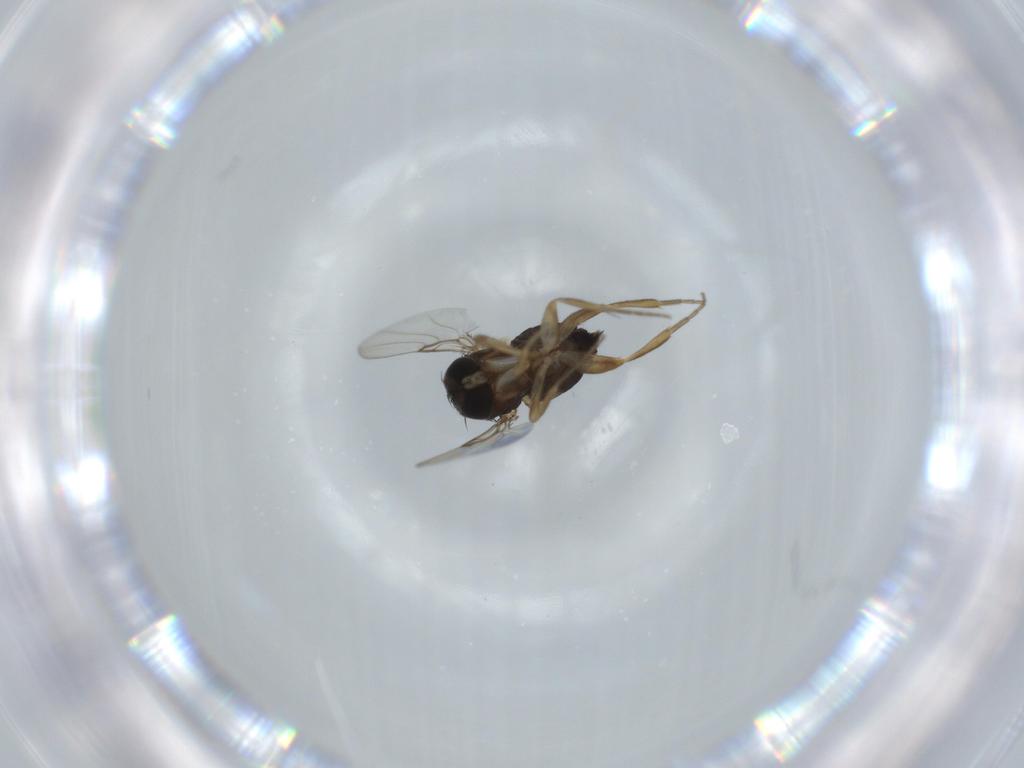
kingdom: Animalia
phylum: Arthropoda
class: Insecta
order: Diptera
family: Phoridae
